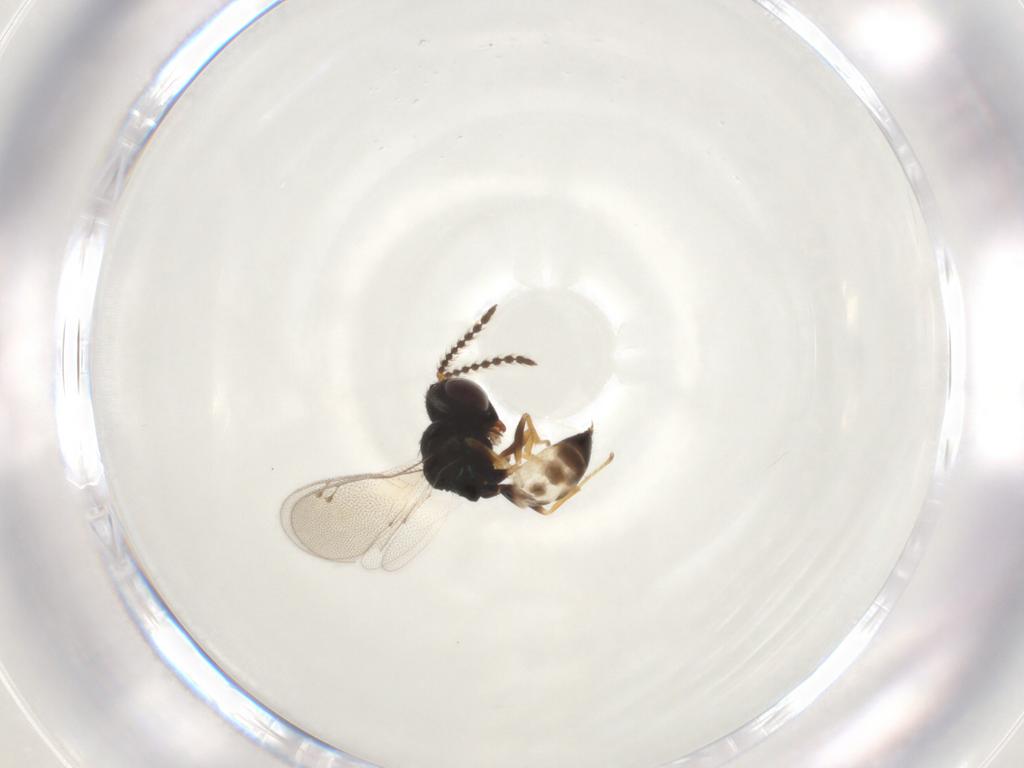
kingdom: Animalia
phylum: Arthropoda
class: Insecta
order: Hymenoptera
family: Pteromalidae
